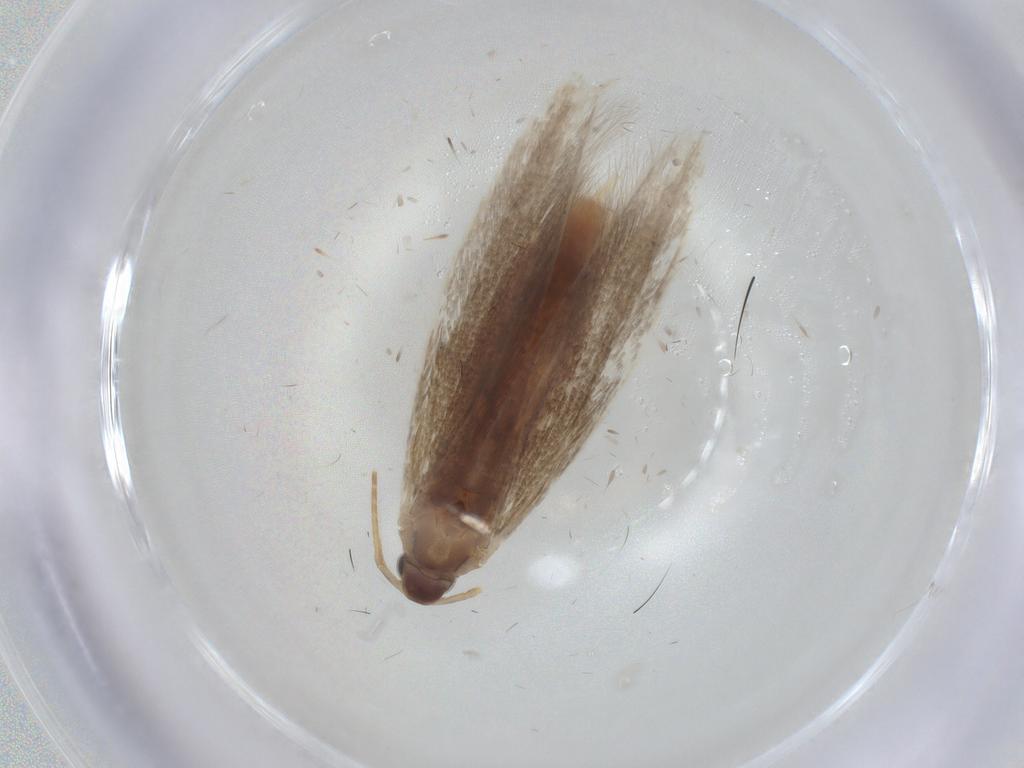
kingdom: Animalia
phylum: Arthropoda
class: Insecta
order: Lepidoptera
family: Coleophoridae
